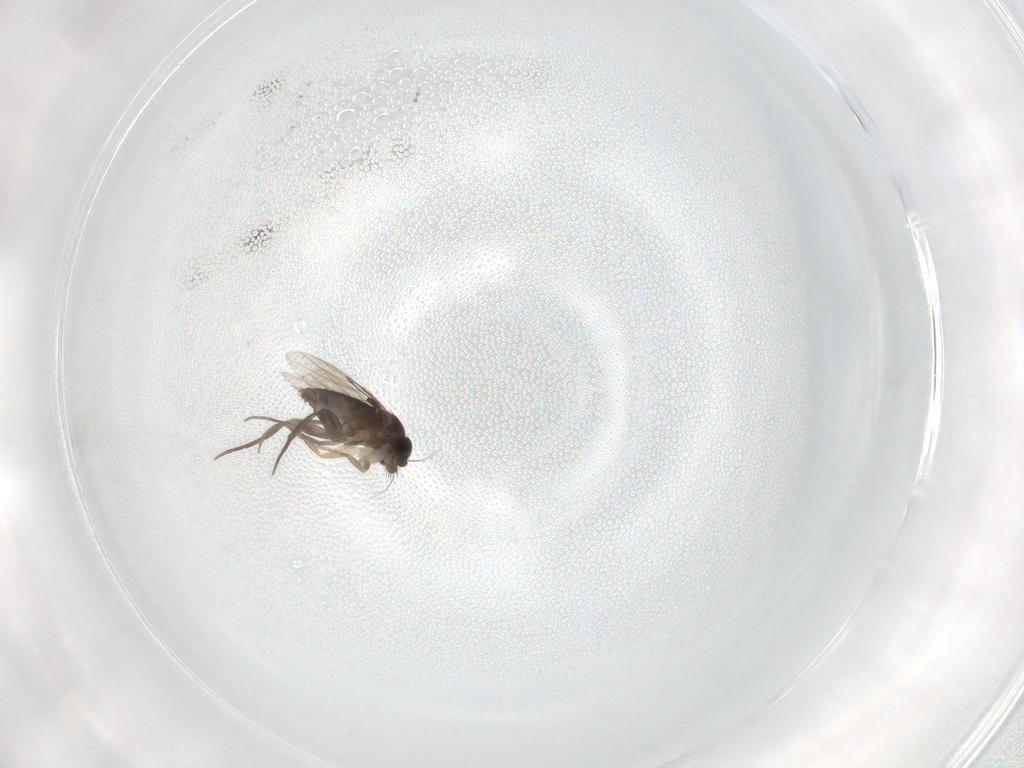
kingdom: Animalia
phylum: Arthropoda
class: Insecta
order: Diptera
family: Phoridae
